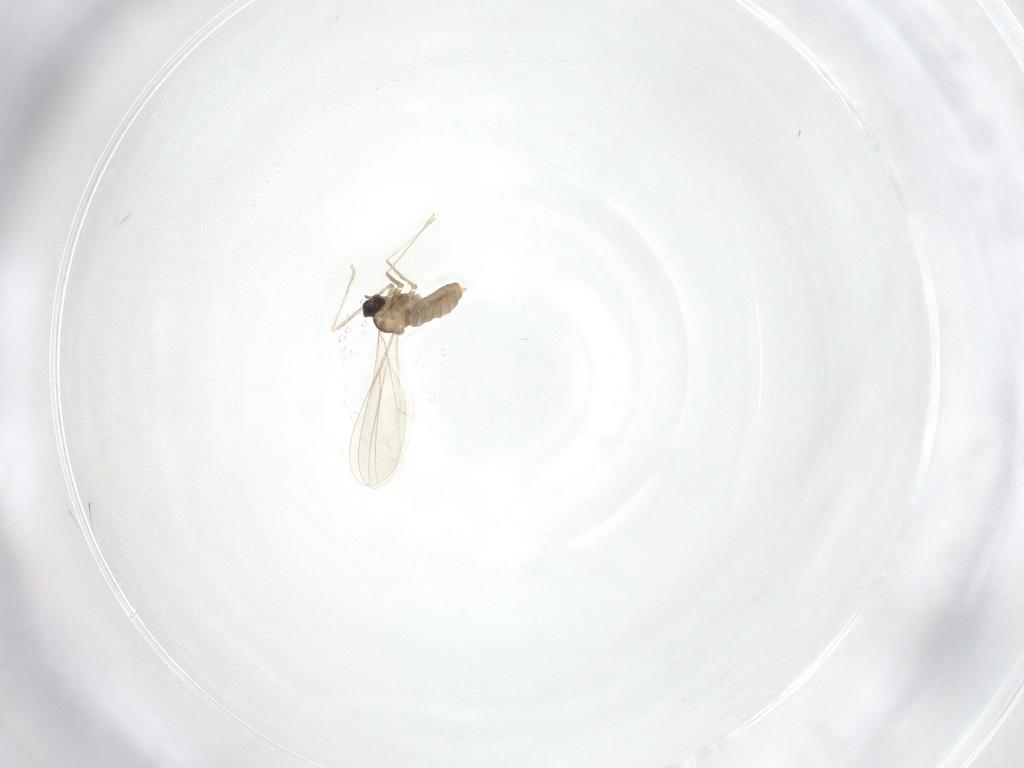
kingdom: Animalia
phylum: Arthropoda
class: Insecta
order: Diptera
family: Cecidomyiidae
